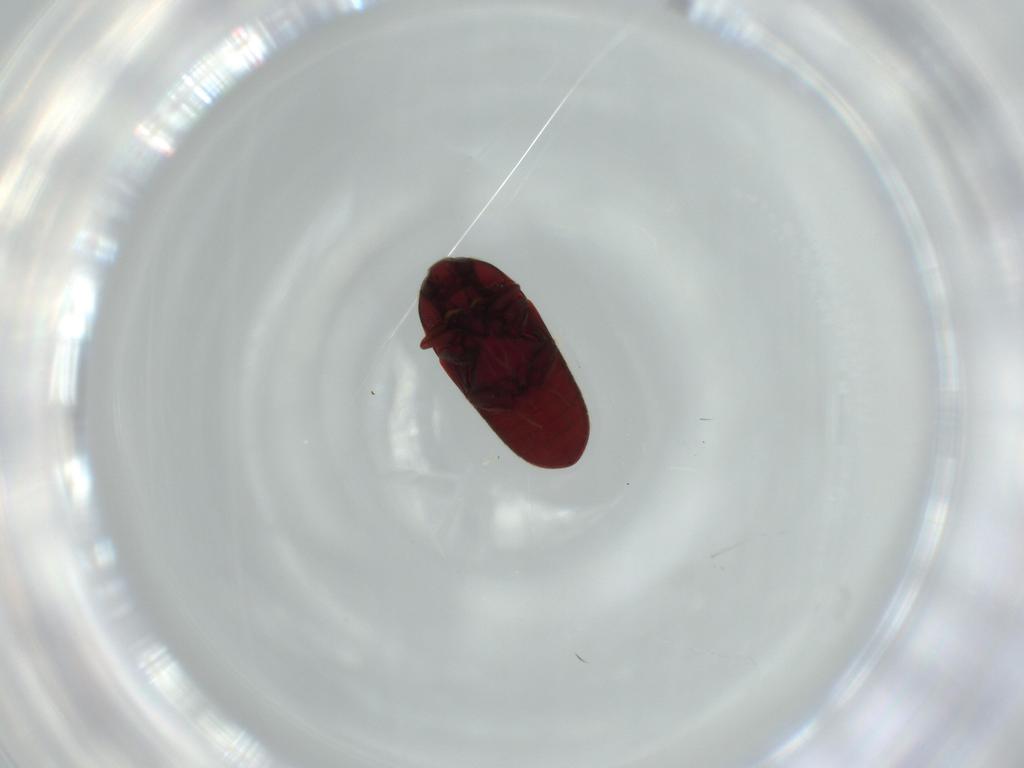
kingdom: Animalia
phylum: Arthropoda
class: Insecta
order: Coleoptera
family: Throscidae
